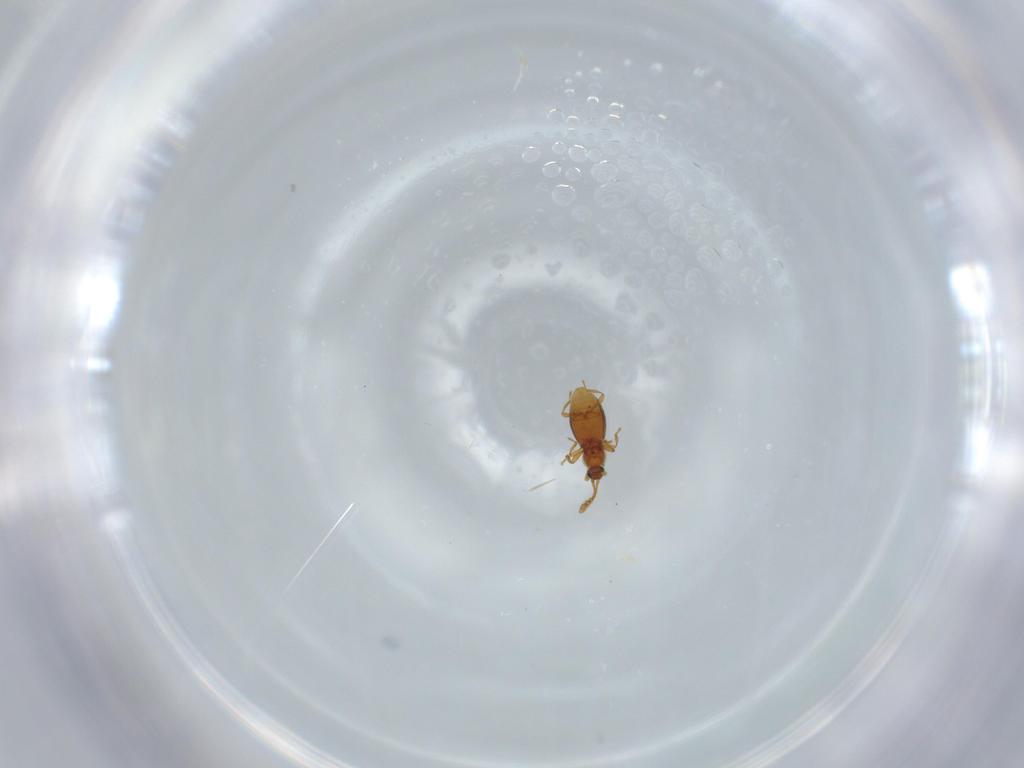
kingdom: Animalia
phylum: Arthropoda
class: Insecta
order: Coleoptera
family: Staphylinidae
